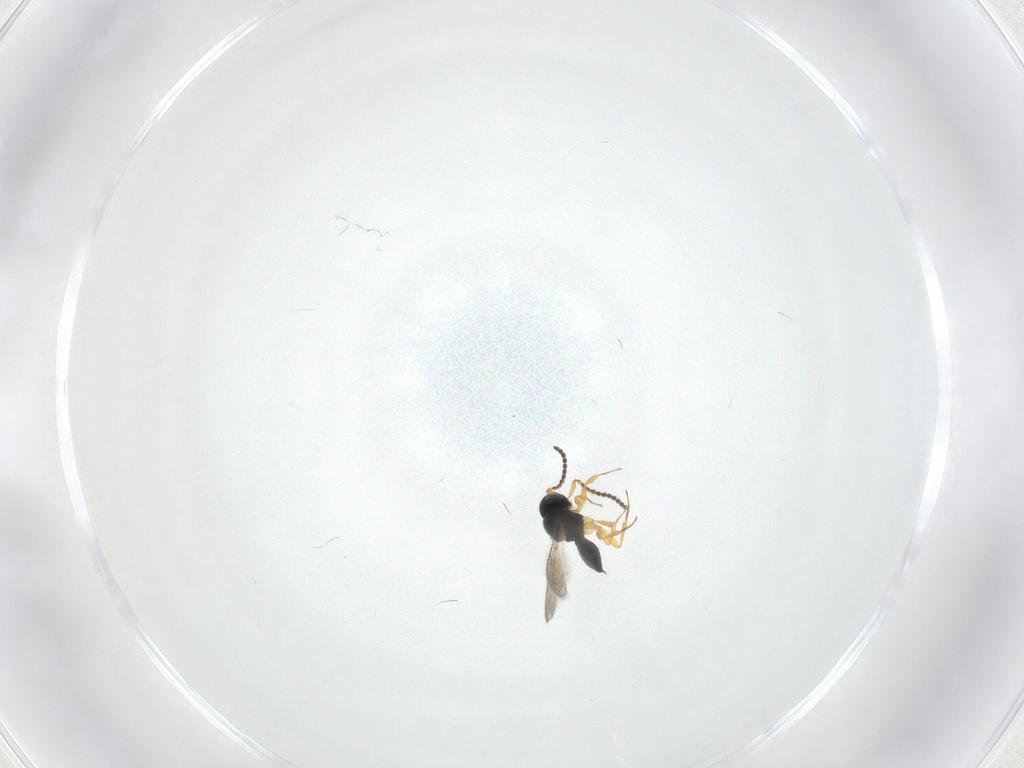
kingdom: Animalia
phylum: Arthropoda
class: Insecta
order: Hymenoptera
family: Scelionidae
